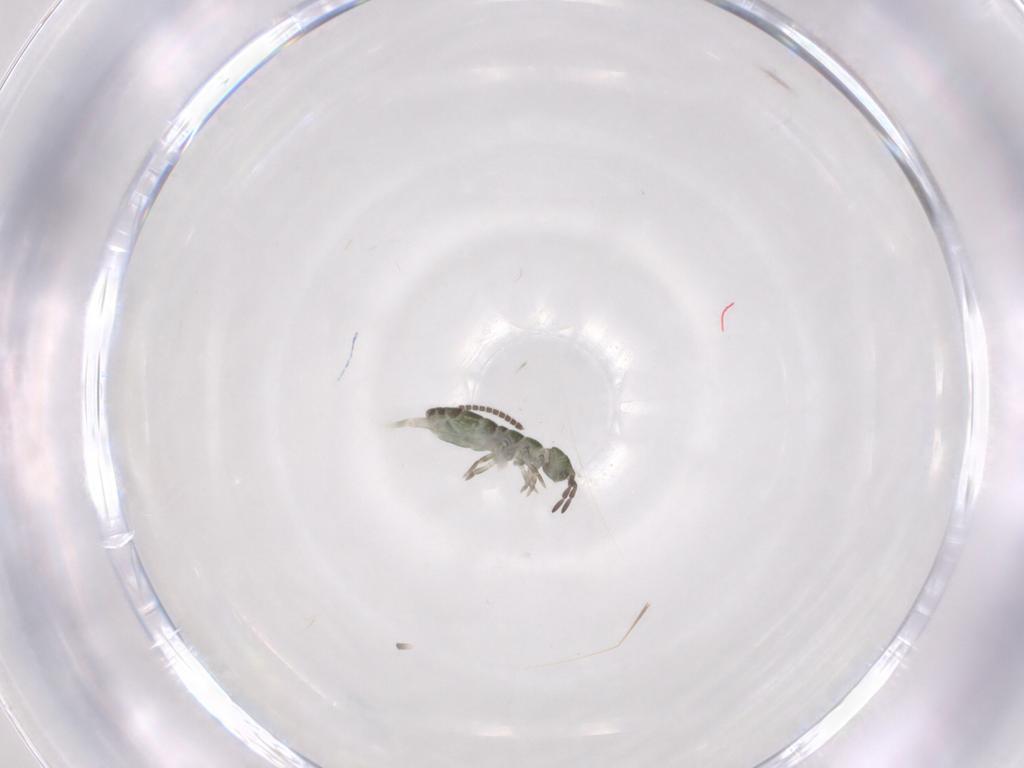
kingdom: Animalia
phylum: Arthropoda
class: Collembola
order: Entomobryomorpha
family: Isotomidae
